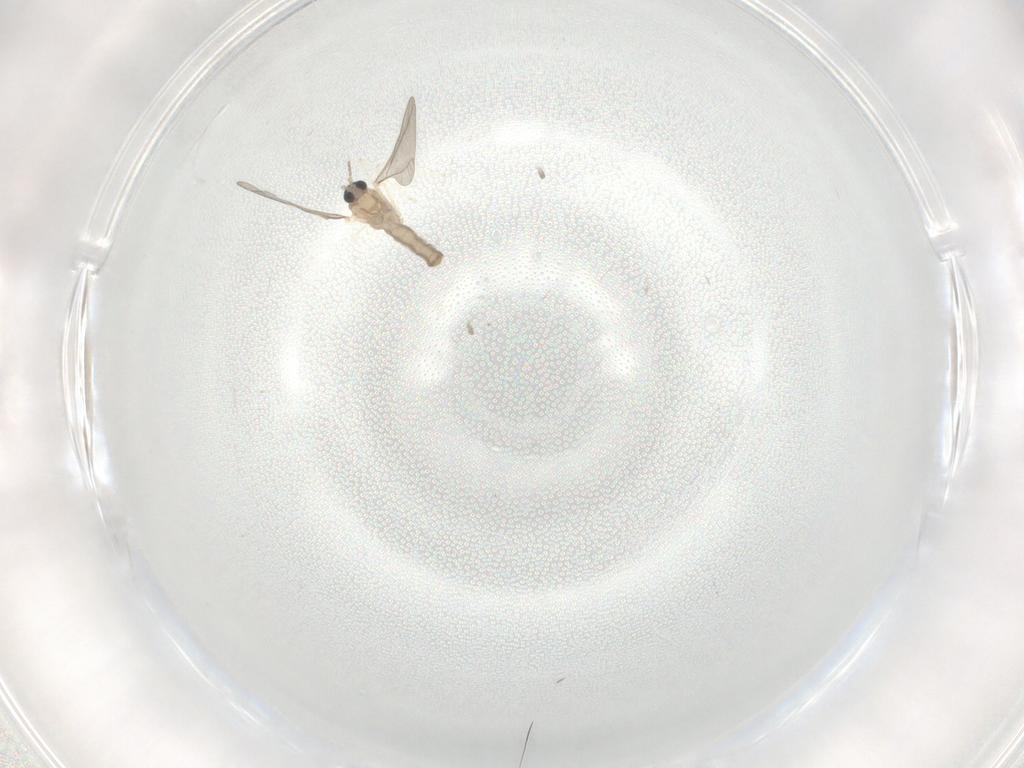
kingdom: Animalia
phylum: Arthropoda
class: Insecta
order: Diptera
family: Cecidomyiidae
